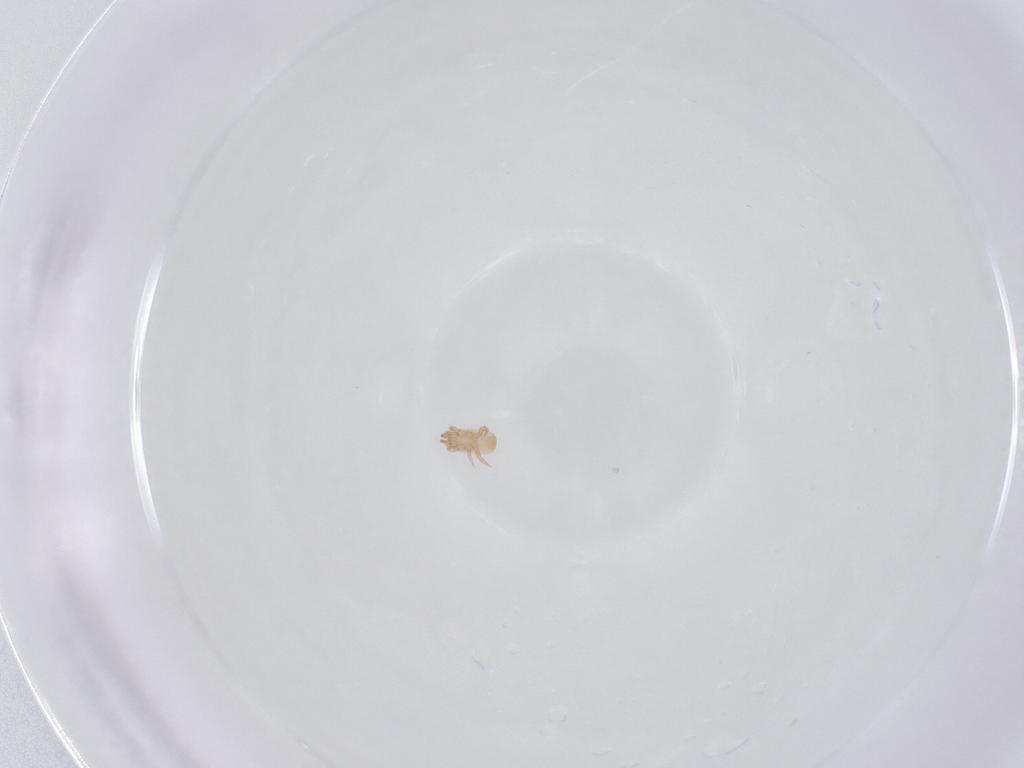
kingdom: Animalia
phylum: Arthropoda
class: Arachnida
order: Mesostigmata
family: Digamasellidae
